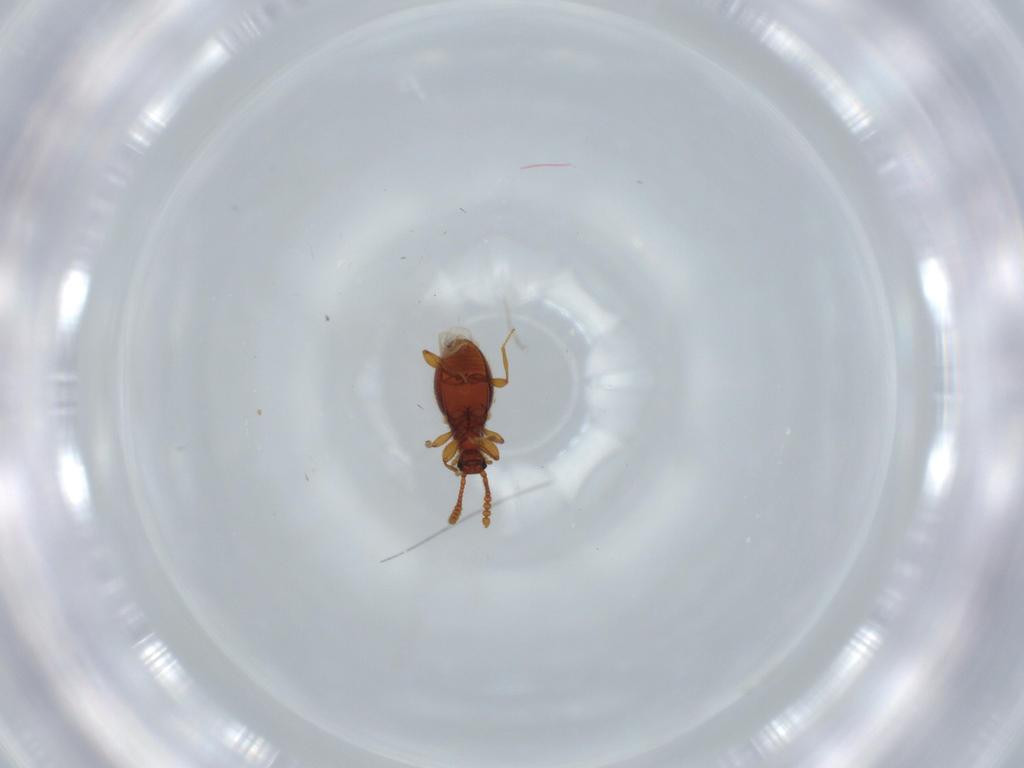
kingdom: Animalia
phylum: Arthropoda
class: Insecta
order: Coleoptera
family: Staphylinidae
